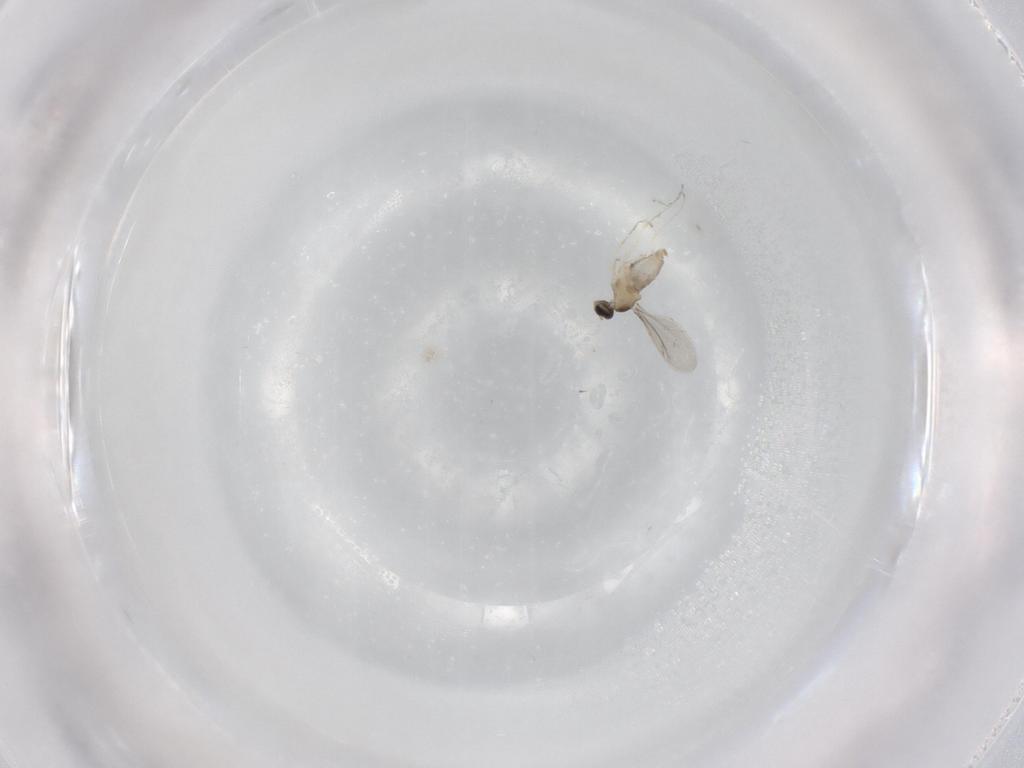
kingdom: Animalia
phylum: Arthropoda
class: Insecta
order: Diptera
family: Cecidomyiidae
